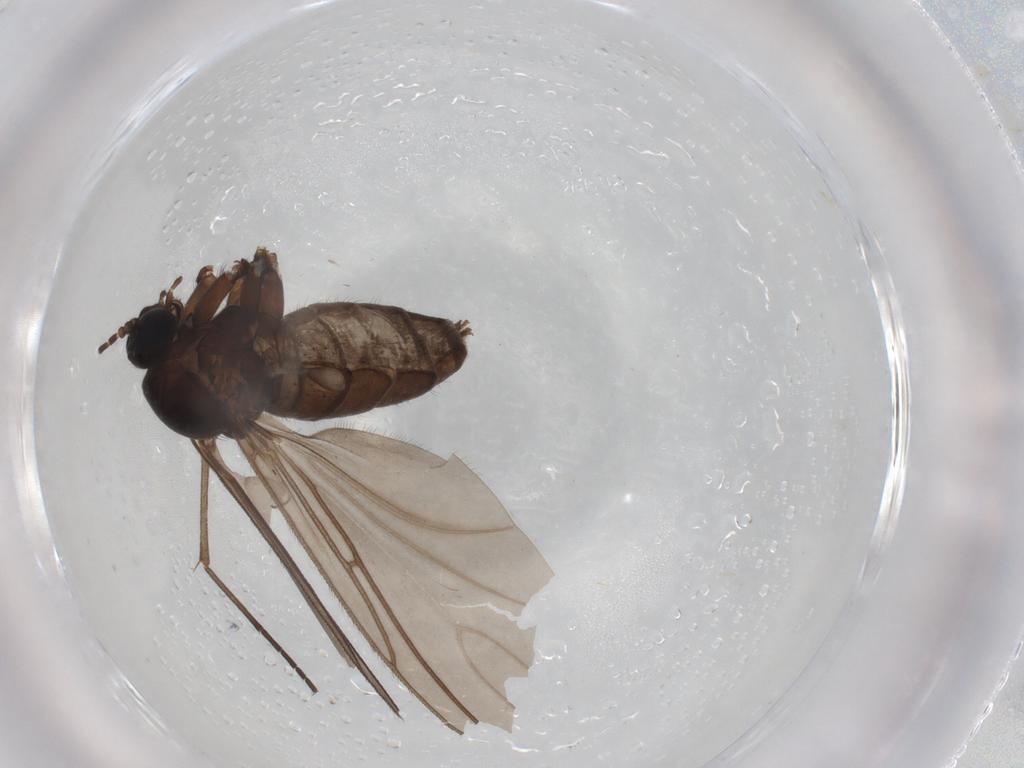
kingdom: Animalia
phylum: Arthropoda
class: Insecta
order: Diptera
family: Sciaridae
